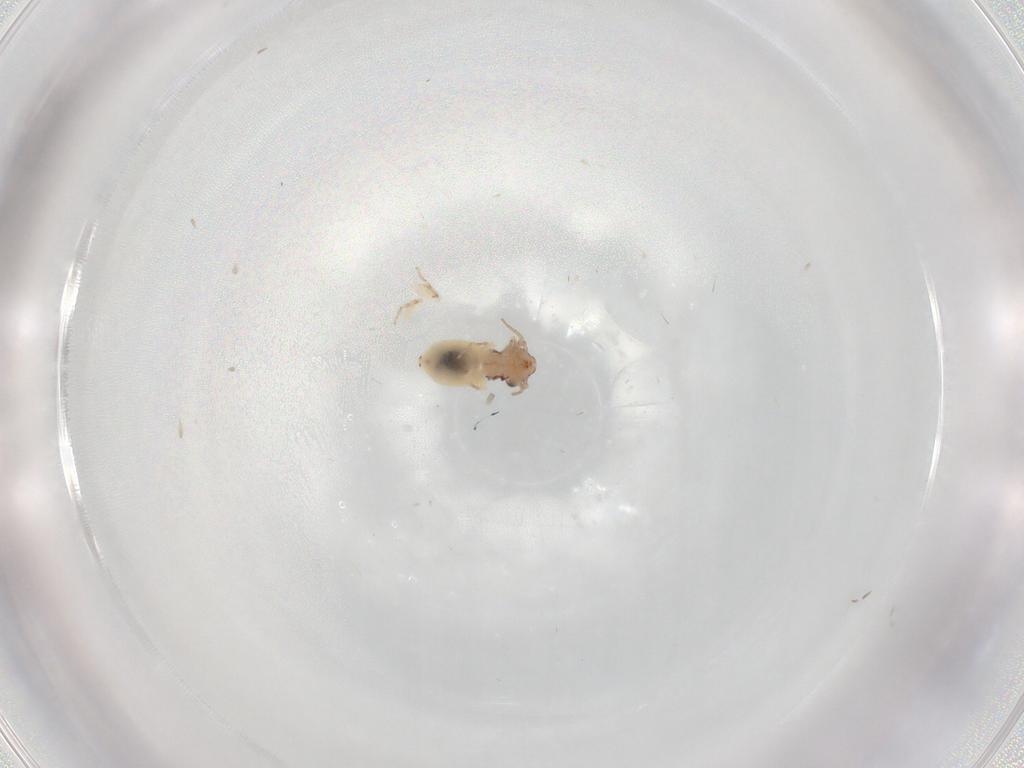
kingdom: Animalia
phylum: Arthropoda
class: Insecta
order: Psocodea
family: Lepidopsocidae
